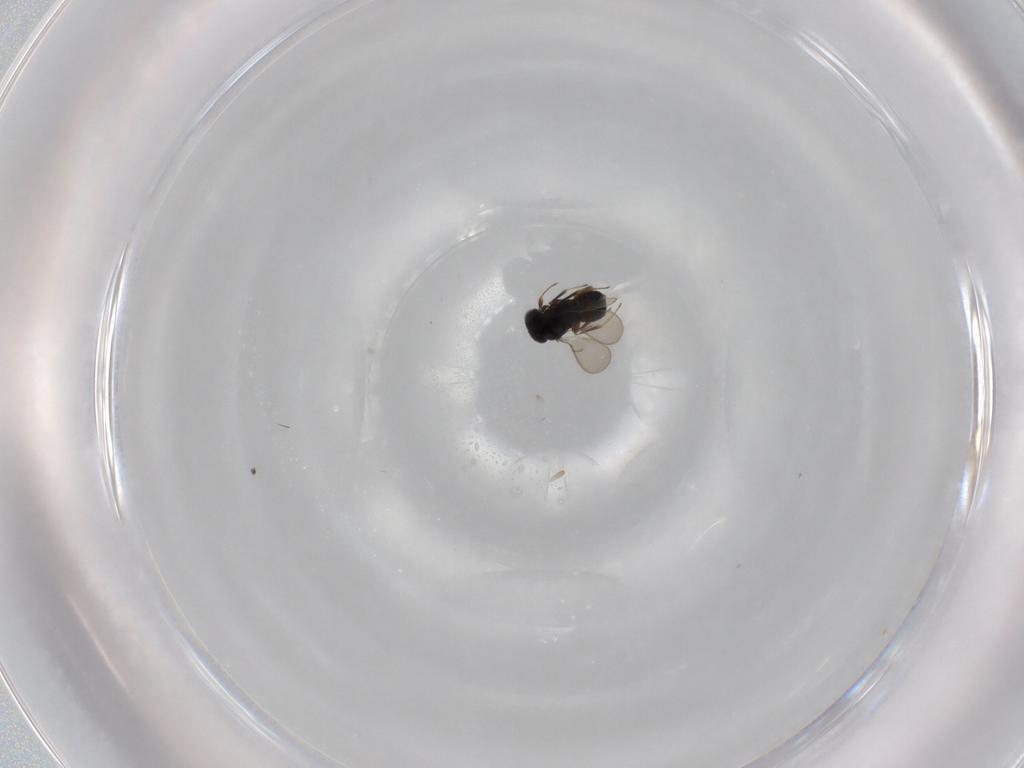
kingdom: Animalia
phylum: Arthropoda
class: Insecta
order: Hymenoptera
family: Scelionidae
